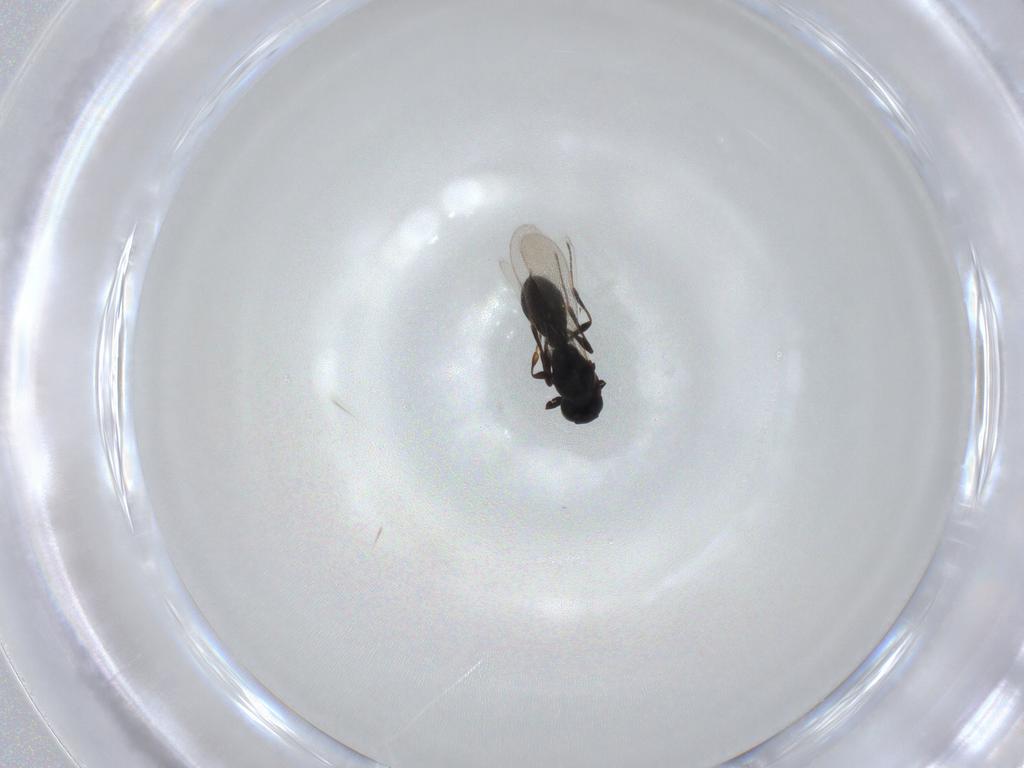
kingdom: Animalia
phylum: Arthropoda
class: Insecta
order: Hymenoptera
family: Platygastridae
